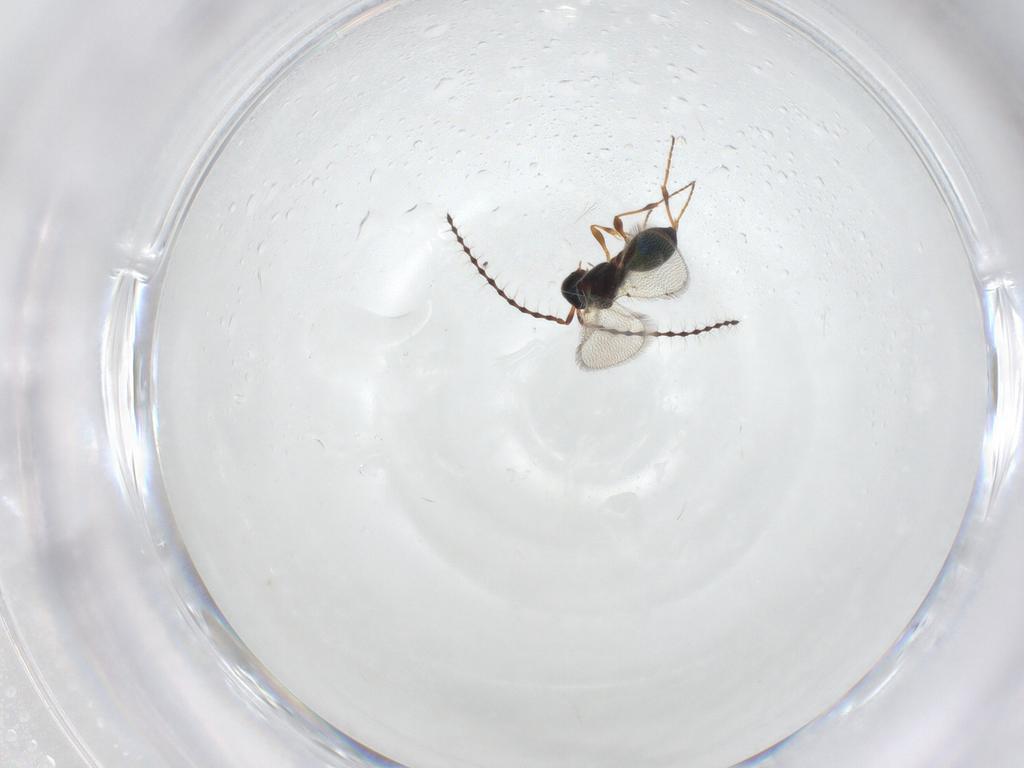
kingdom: Animalia
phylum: Arthropoda
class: Insecta
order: Hymenoptera
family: Diapriidae
